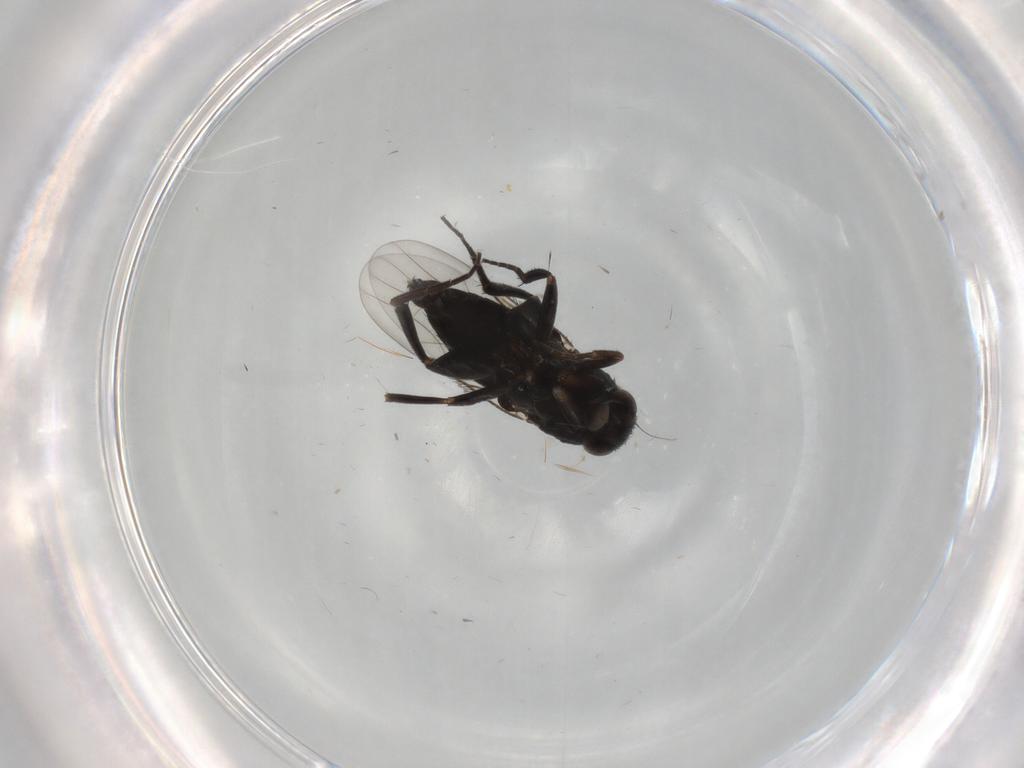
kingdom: Animalia
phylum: Arthropoda
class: Insecta
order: Diptera
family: Phoridae
